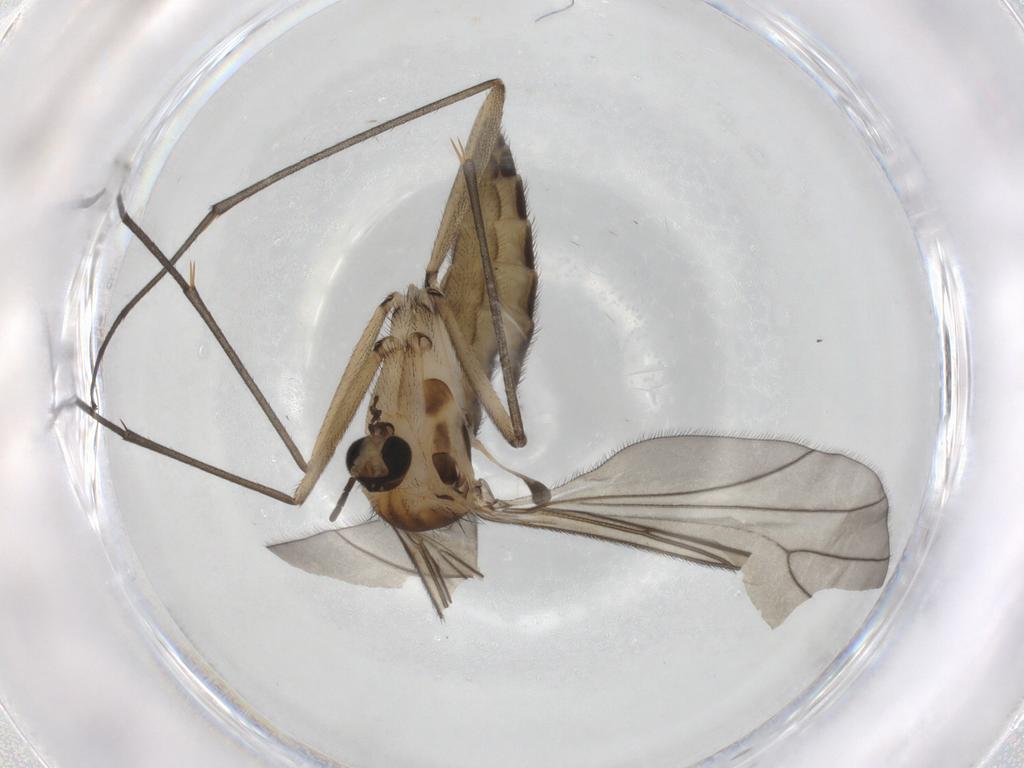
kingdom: Animalia
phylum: Arthropoda
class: Insecta
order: Diptera
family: Sciaridae
